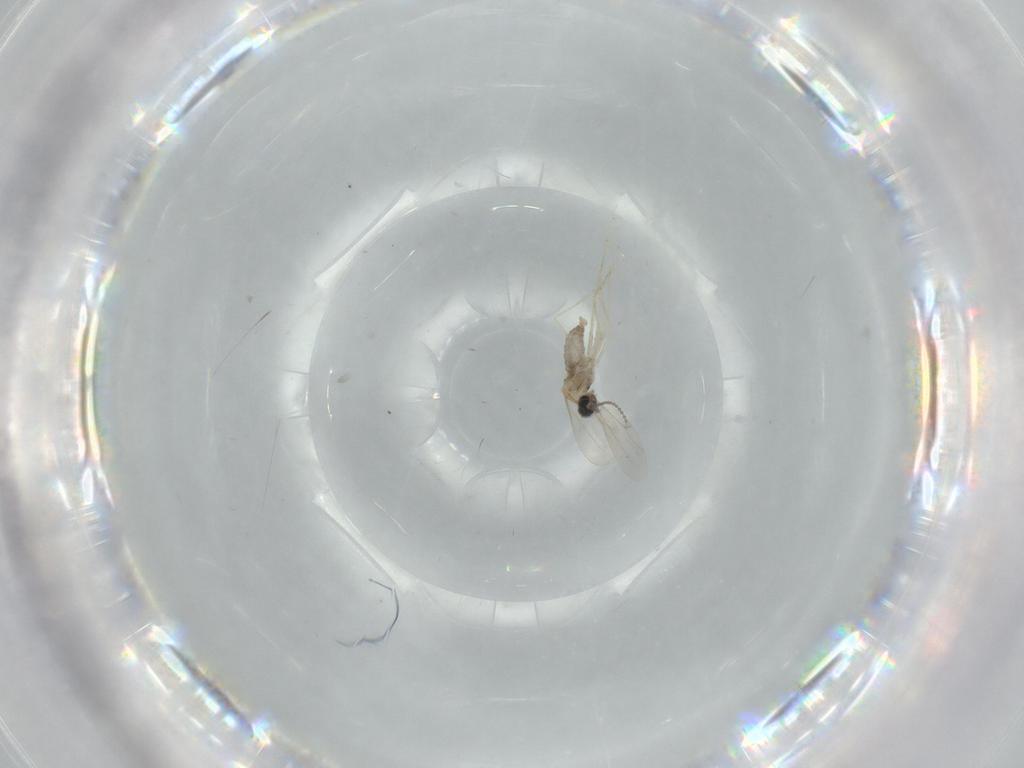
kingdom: Animalia
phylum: Arthropoda
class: Insecta
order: Diptera
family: Cecidomyiidae
